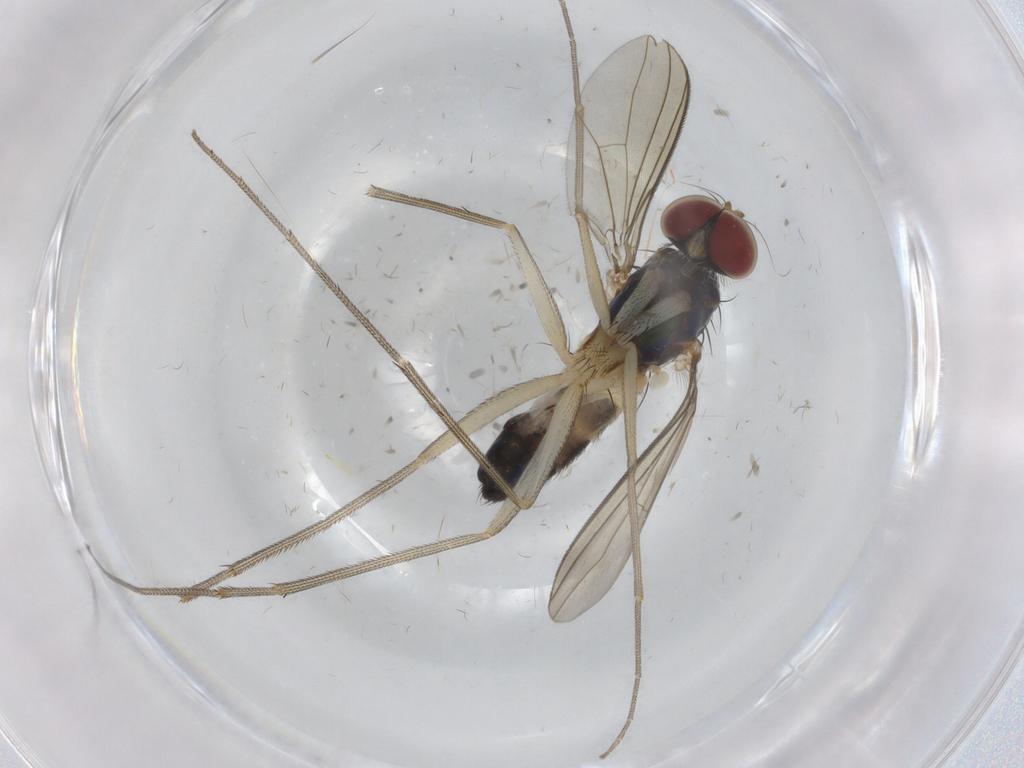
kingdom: Animalia
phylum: Arthropoda
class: Insecta
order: Diptera
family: Dolichopodidae
